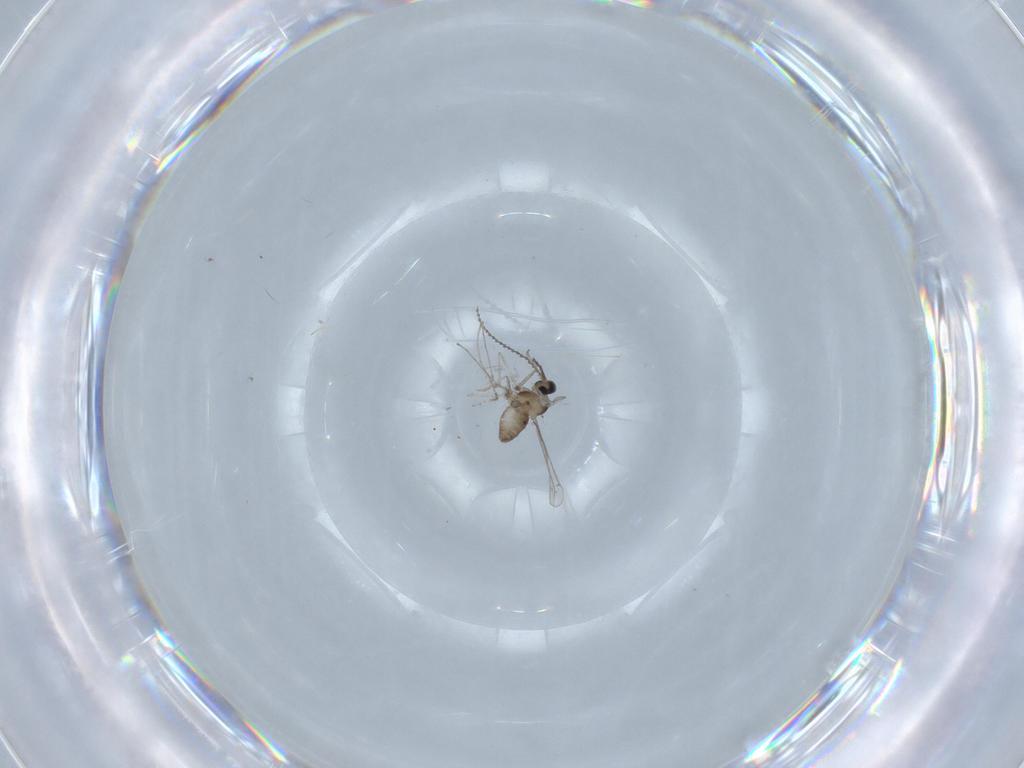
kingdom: Animalia
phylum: Arthropoda
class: Insecta
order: Diptera
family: Cecidomyiidae
